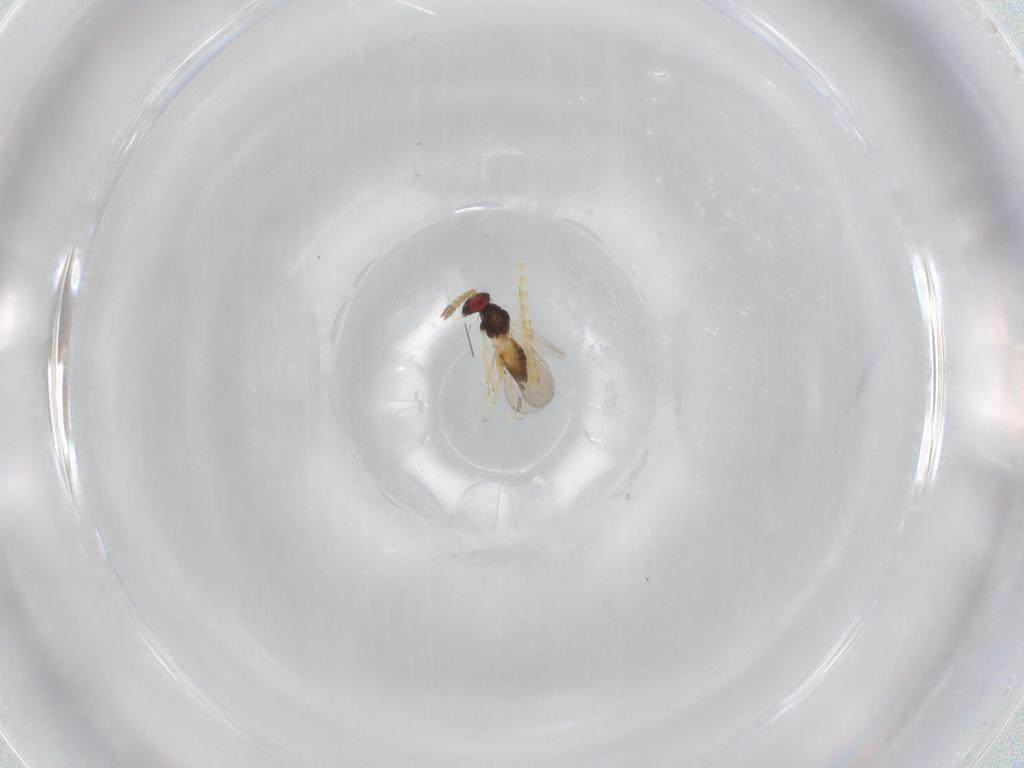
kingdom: Animalia
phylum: Arthropoda
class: Insecta
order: Hymenoptera
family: Eulophidae
